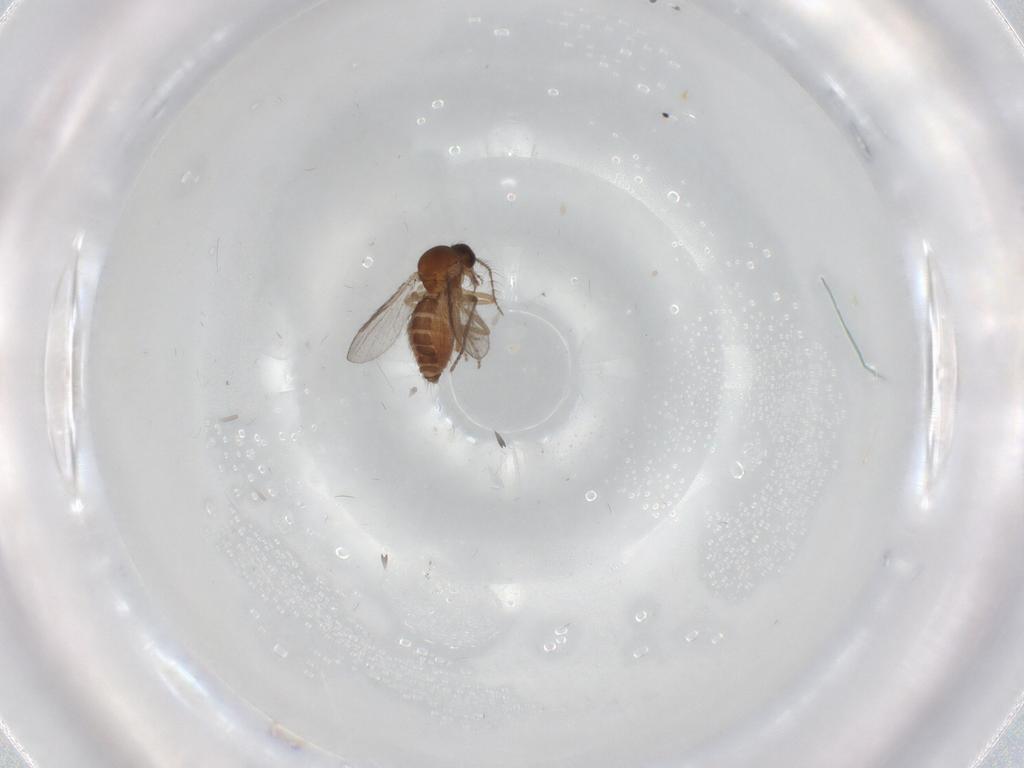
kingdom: Animalia
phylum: Arthropoda
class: Insecta
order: Diptera
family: Ceratopogonidae
